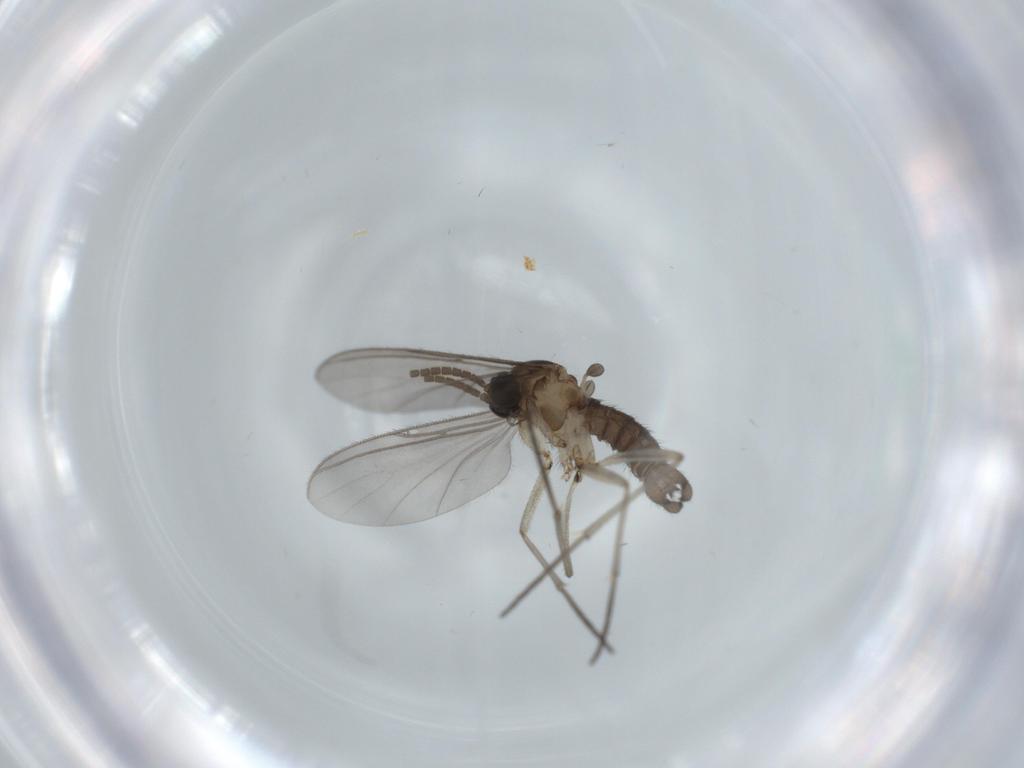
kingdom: Animalia
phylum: Arthropoda
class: Insecta
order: Diptera
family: Sciaridae
